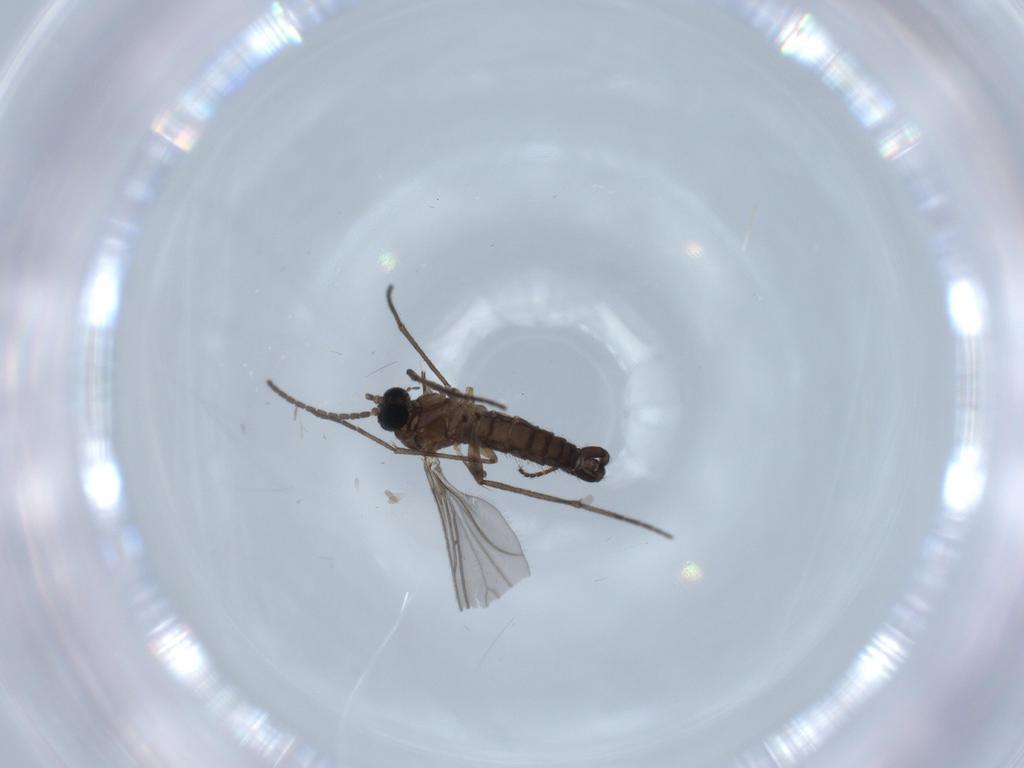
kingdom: Animalia
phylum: Arthropoda
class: Insecta
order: Diptera
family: Milichiidae
